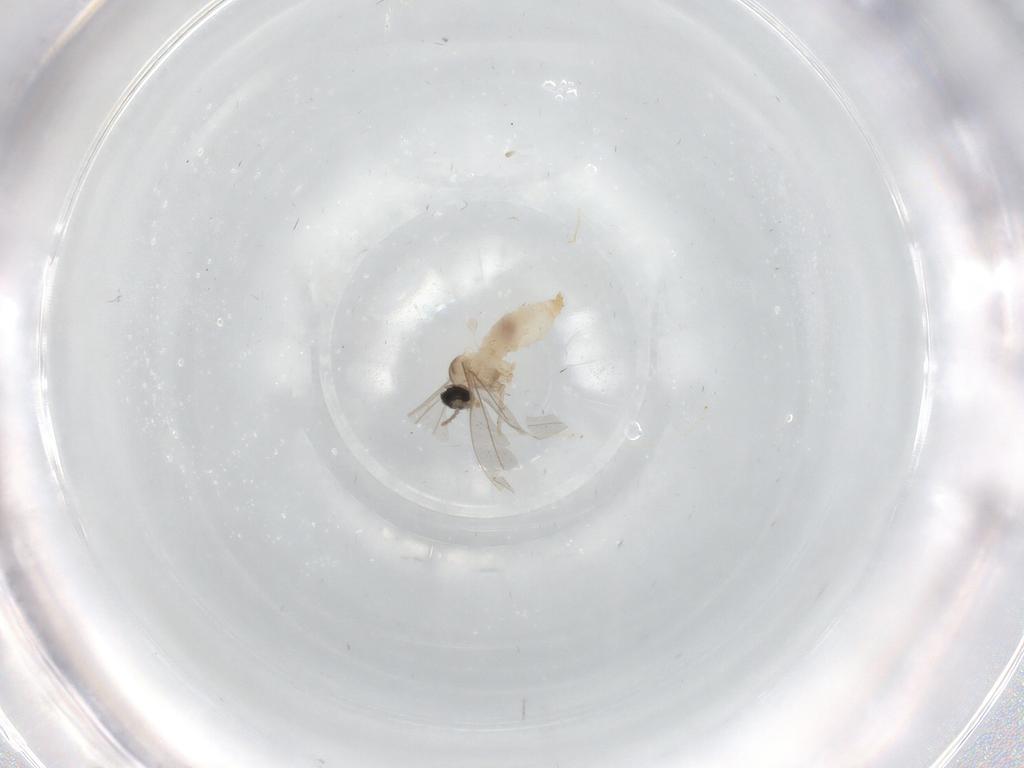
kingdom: Animalia
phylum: Arthropoda
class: Insecta
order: Diptera
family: Cecidomyiidae
